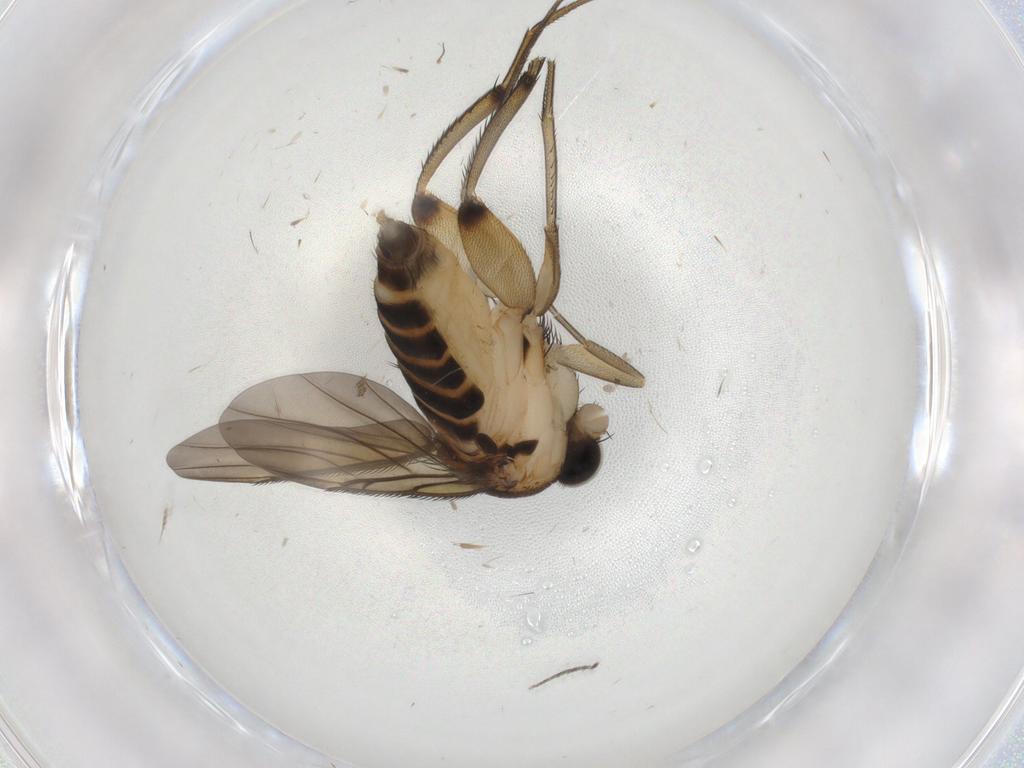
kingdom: Animalia
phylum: Arthropoda
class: Insecta
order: Diptera
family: Phoridae
